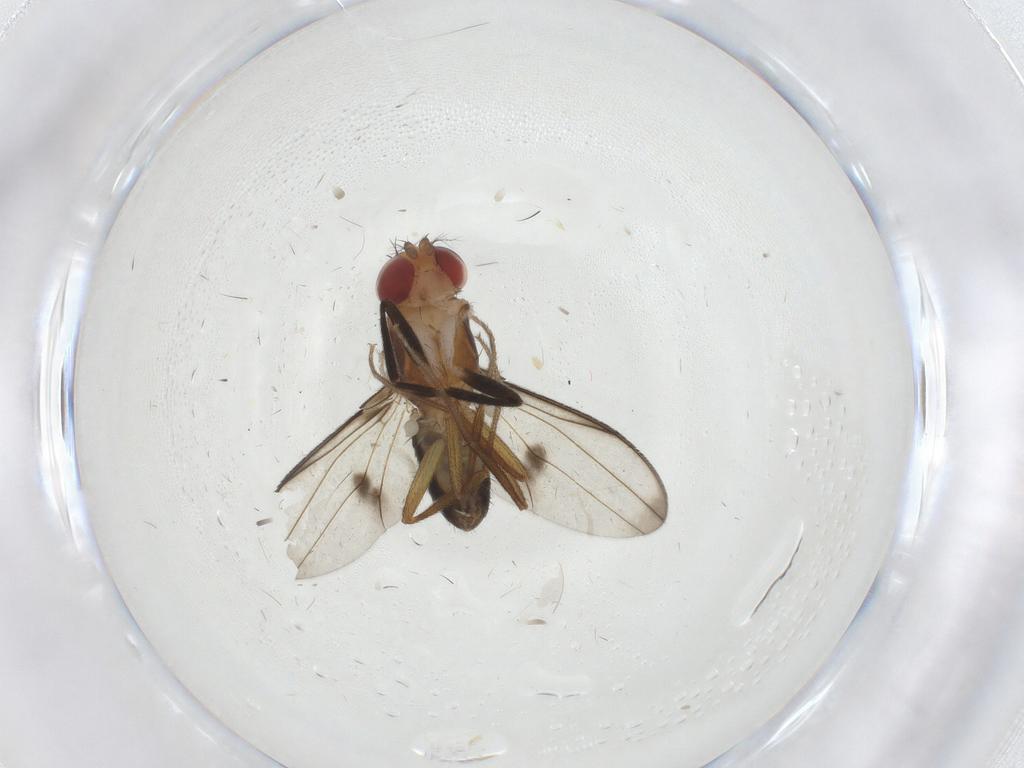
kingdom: Animalia
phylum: Arthropoda
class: Insecta
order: Diptera
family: Drosophilidae
